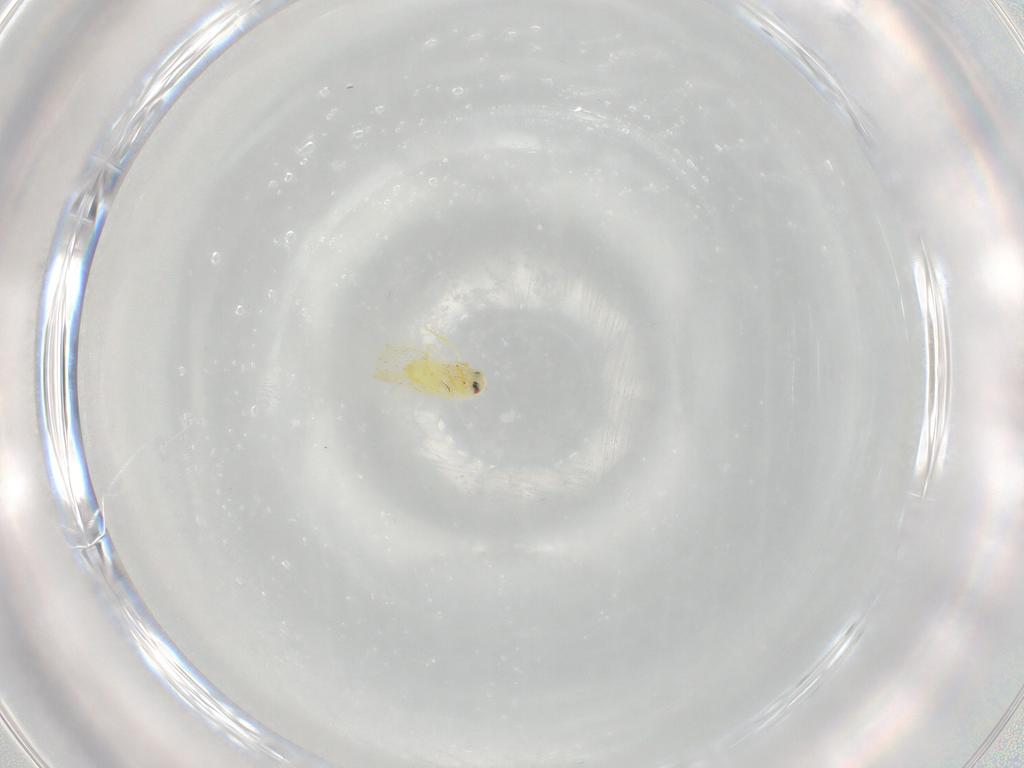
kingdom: Animalia
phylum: Arthropoda
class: Insecta
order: Hemiptera
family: Aleyrodidae
